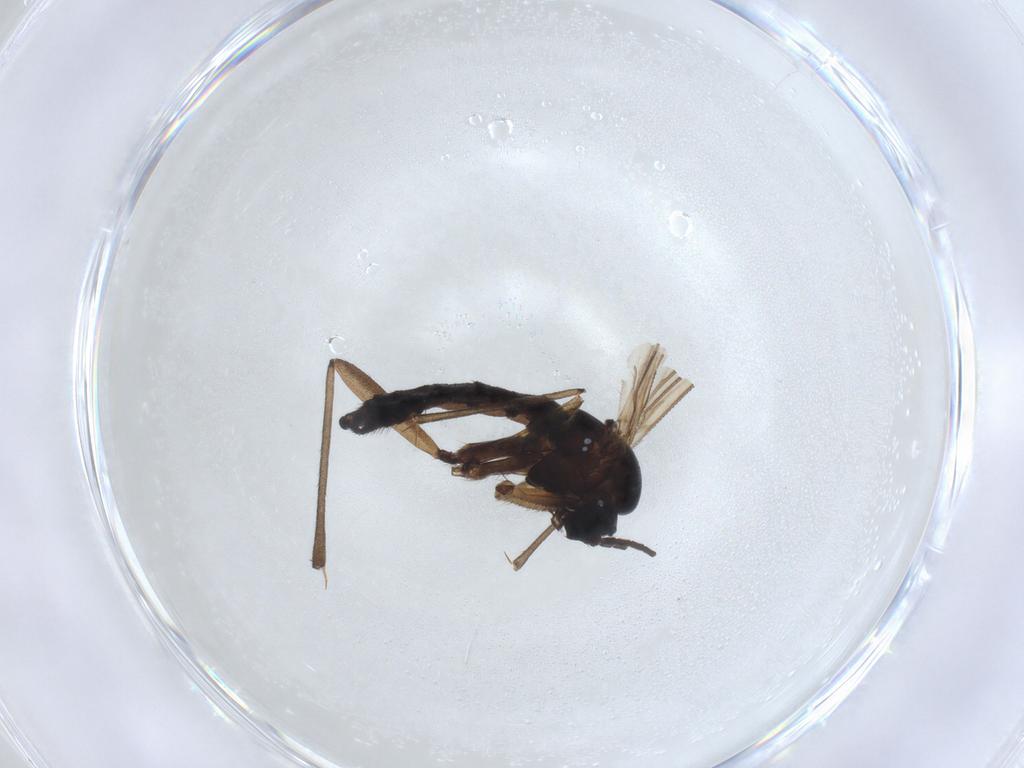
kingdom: Animalia
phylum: Arthropoda
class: Insecta
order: Diptera
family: Sciaridae
